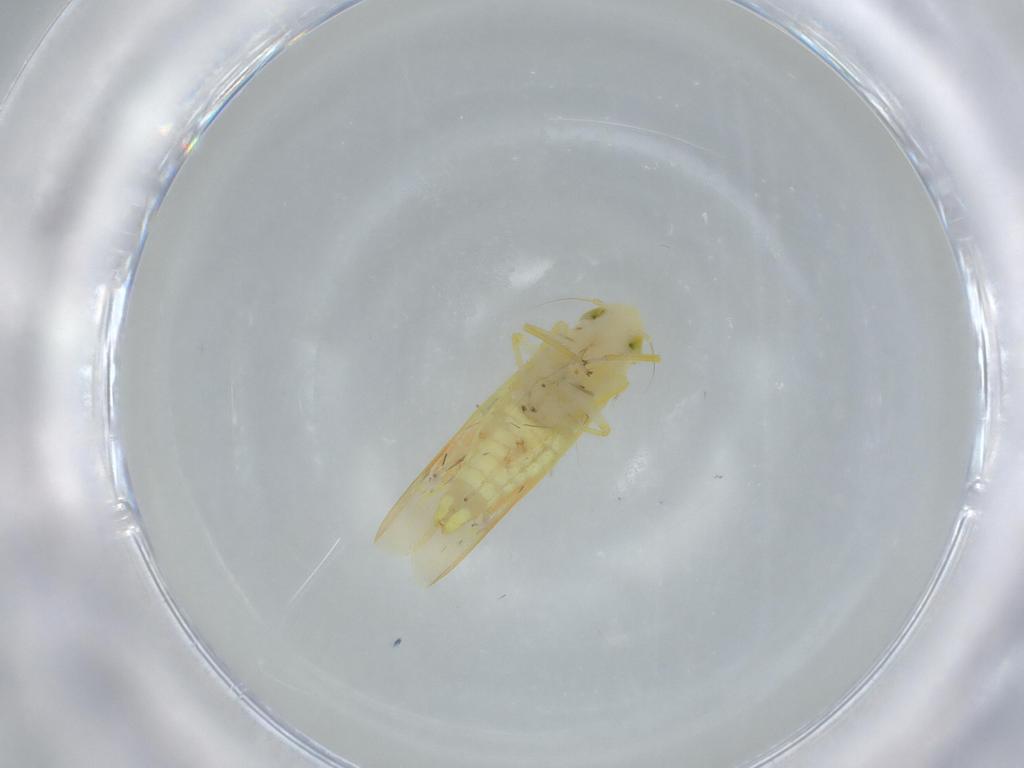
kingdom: Animalia
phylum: Arthropoda
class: Insecta
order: Hemiptera
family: Cicadellidae
